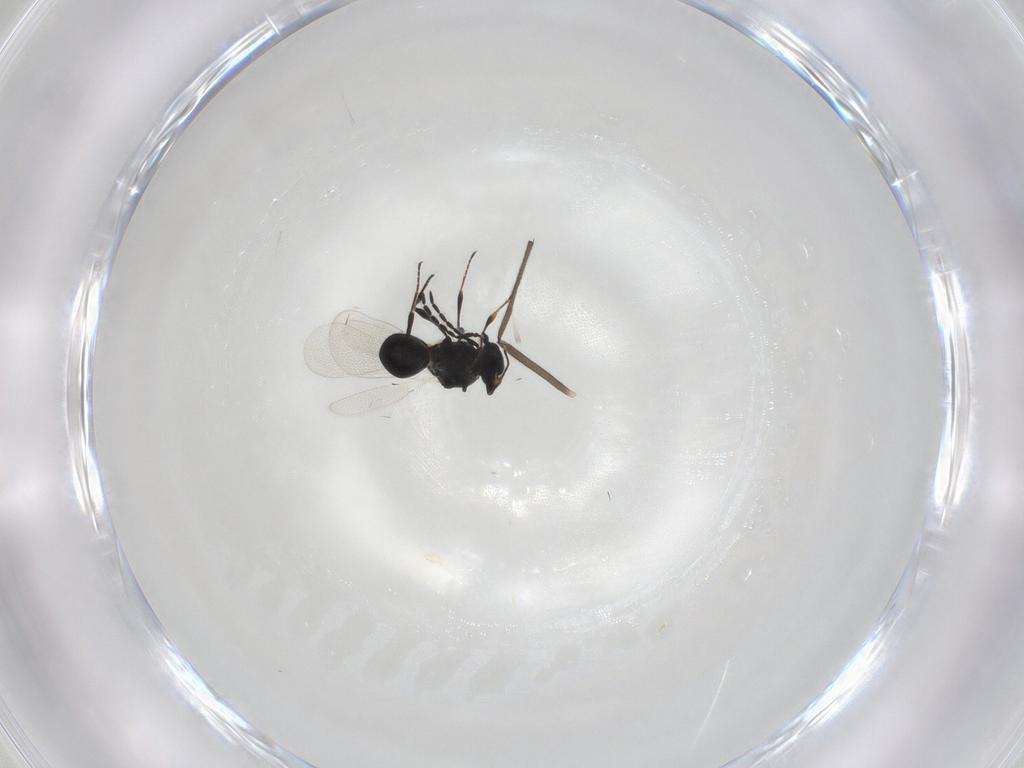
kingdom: Animalia
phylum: Arthropoda
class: Insecta
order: Hymenoptera
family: Platygastridae
